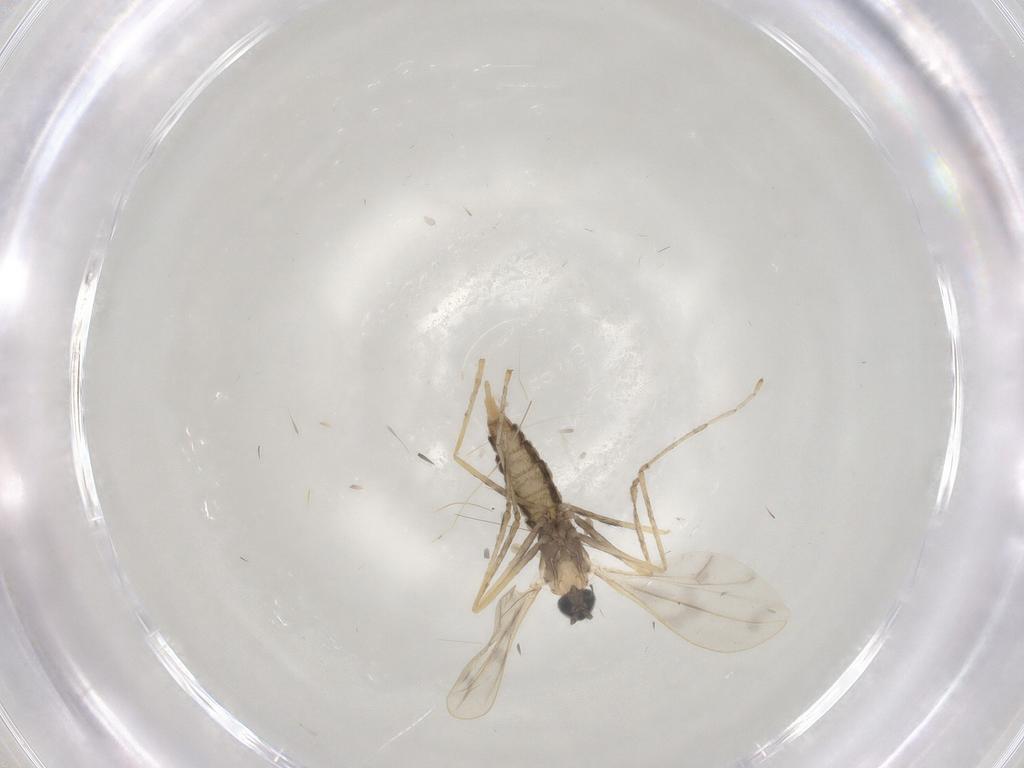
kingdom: Animalia
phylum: Arthropoda
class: Insecta
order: Diptera
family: Cecidomyiidae
